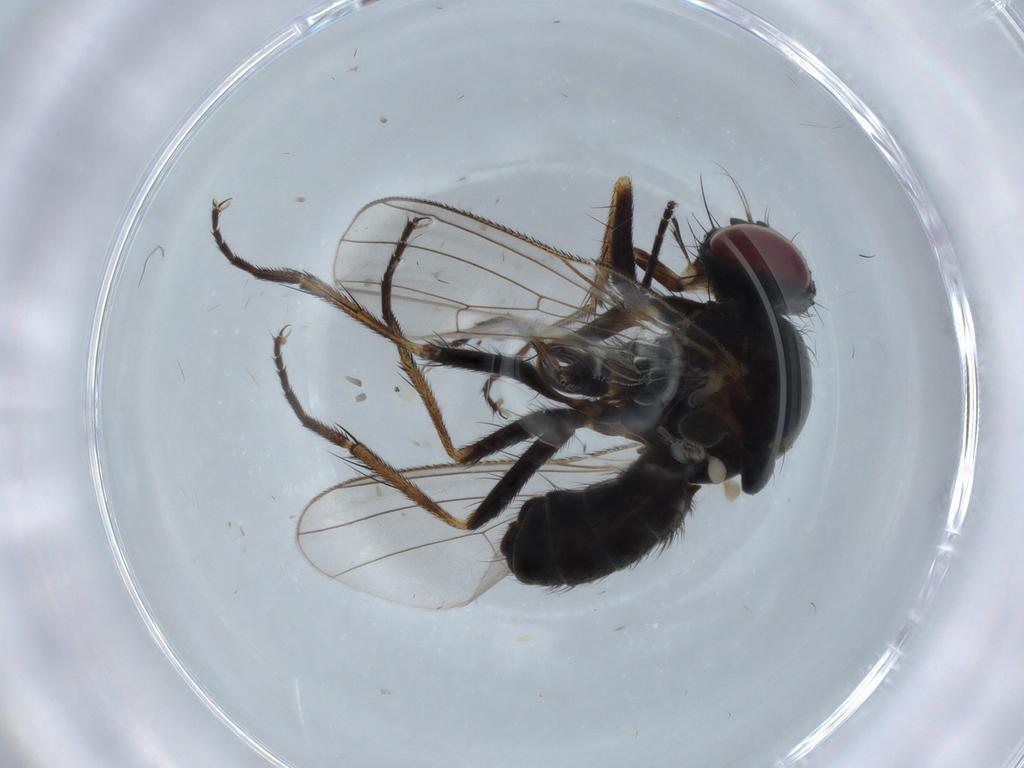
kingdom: Animalia
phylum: Arthropoda
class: Insecta
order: Diptera
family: Muscidae
